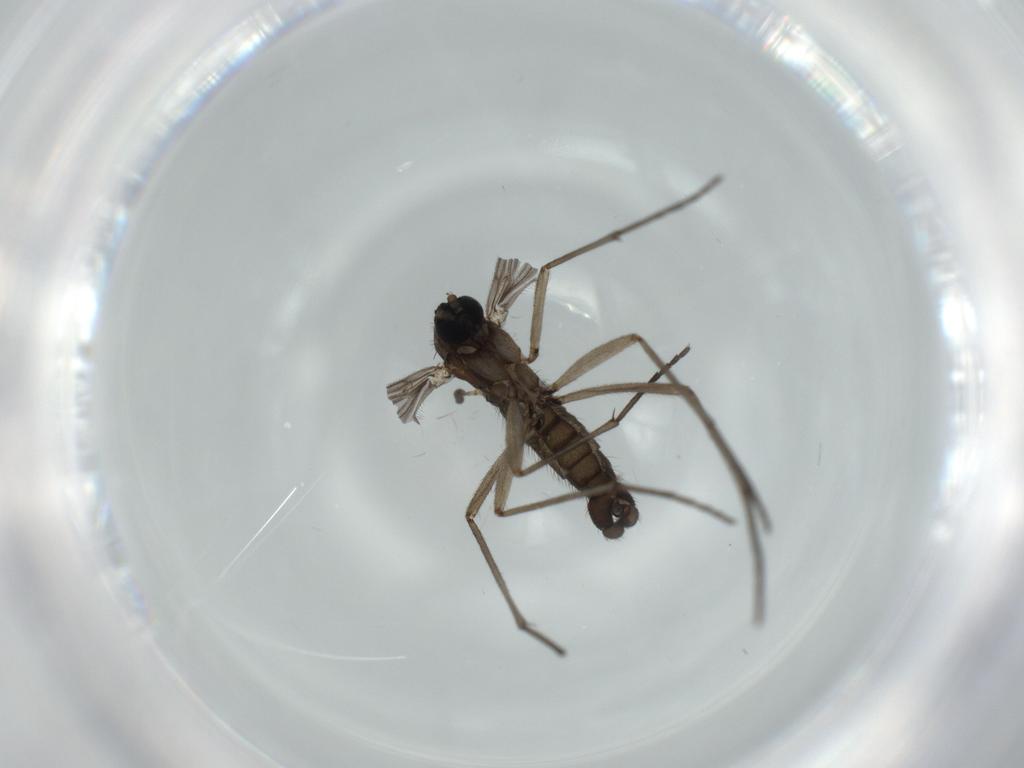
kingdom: Animalia
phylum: Arthropoda
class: Insecta
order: Diptera
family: Sciaridae
